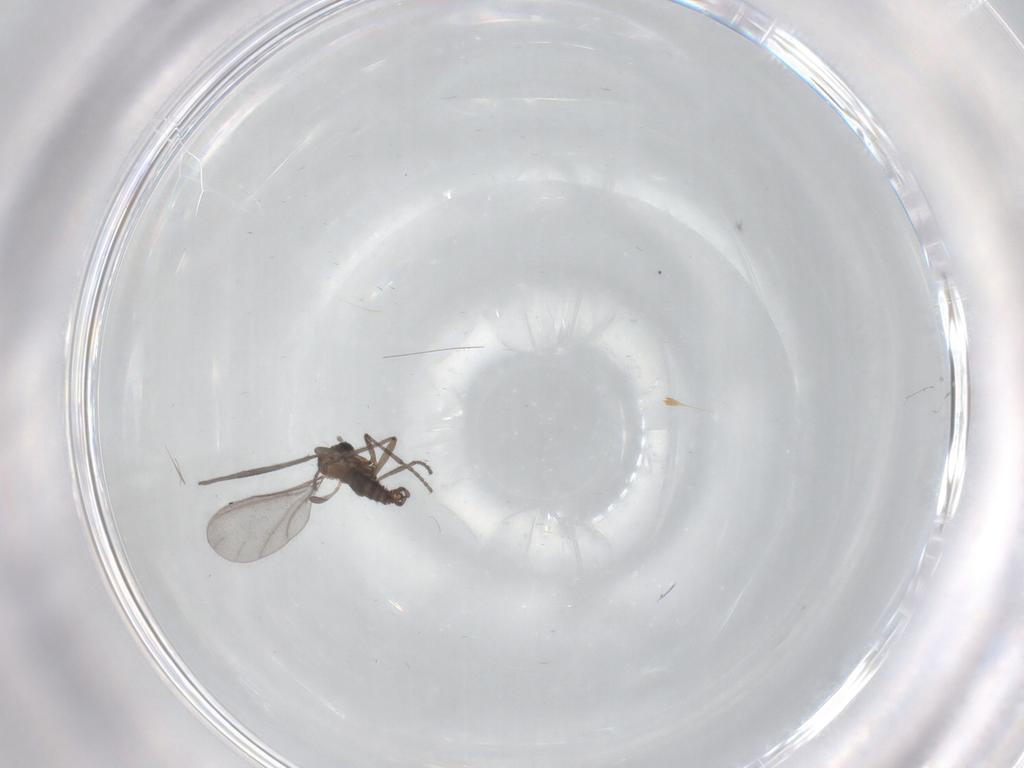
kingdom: Animalia
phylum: Arthropoda
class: Insecta
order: Diptera
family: Sciaridae
